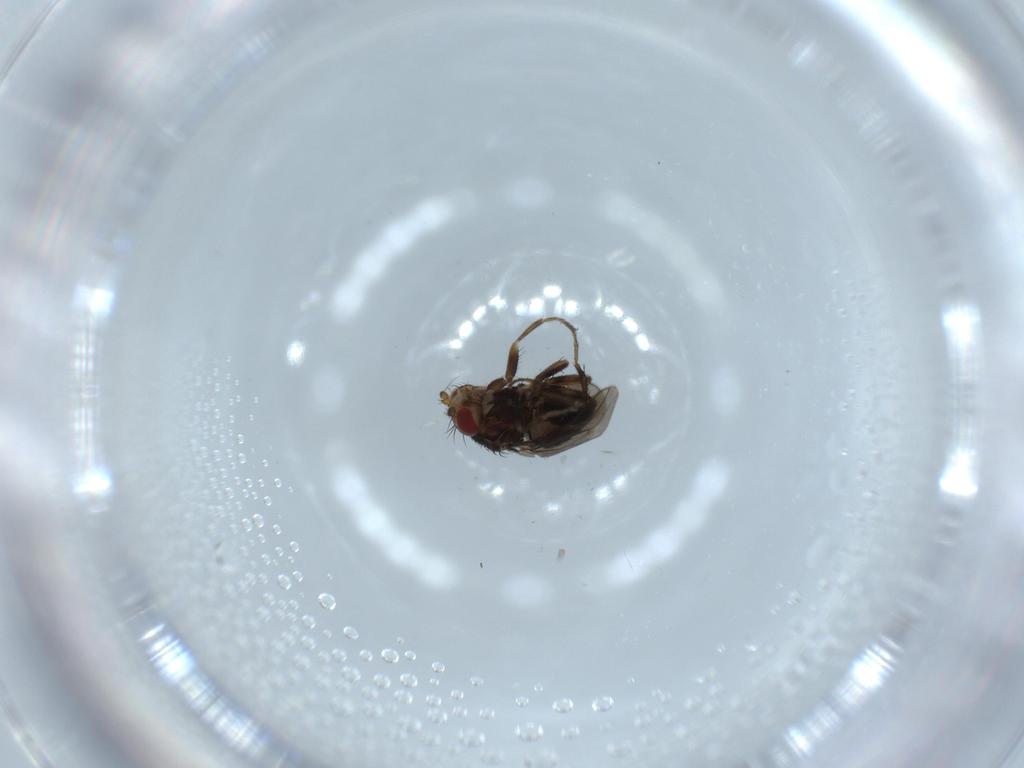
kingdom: Animalia
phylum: Arthropoda
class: Insecta
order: Diptera
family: Cecidomyiidae
